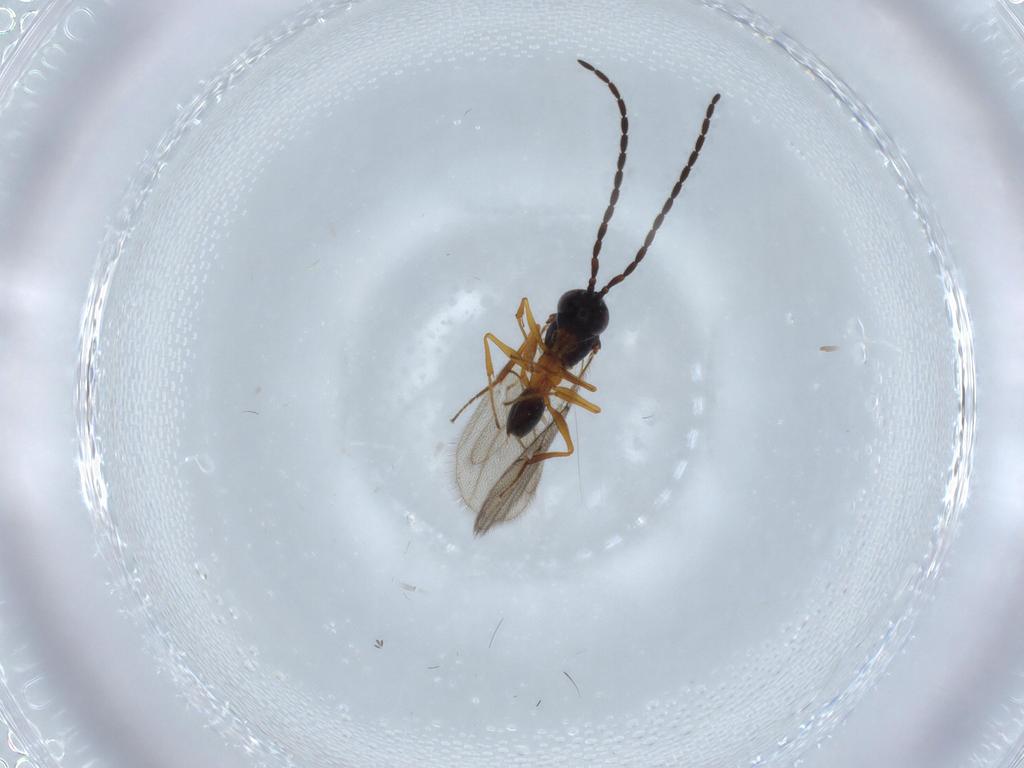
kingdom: Animalia
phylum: Arthropoda
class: Insecta
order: Hymenoptera
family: Figitidae
